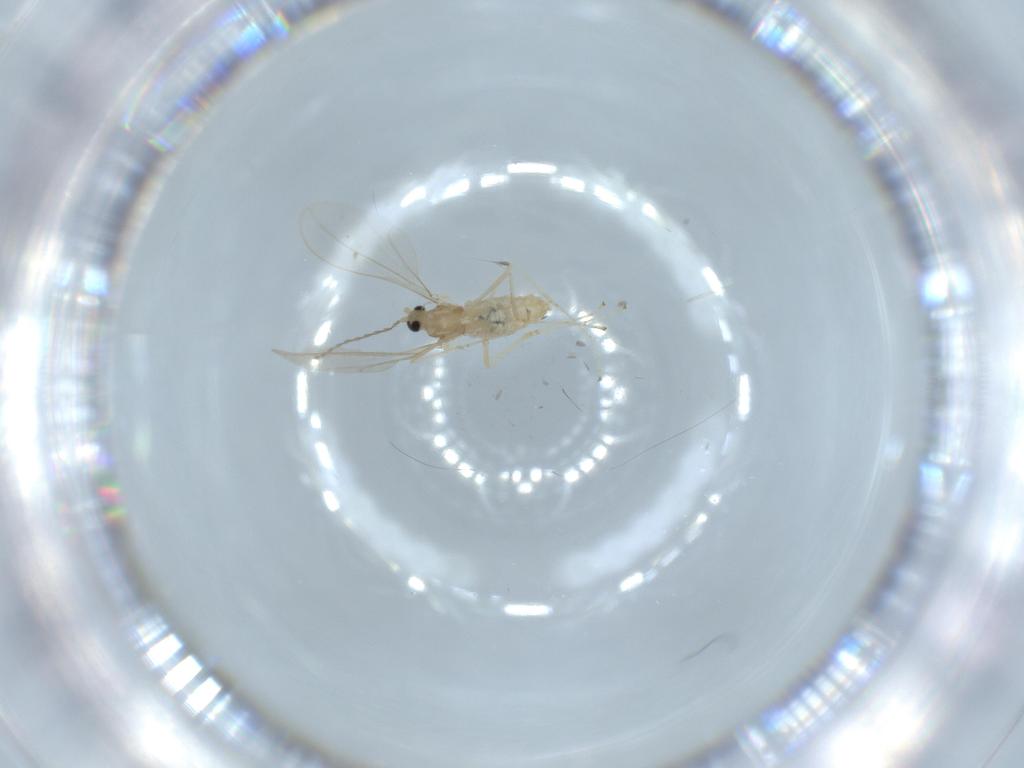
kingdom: Animalia
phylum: Arthropoda
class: Insecta
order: Diptera
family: Cecidomyiidae
